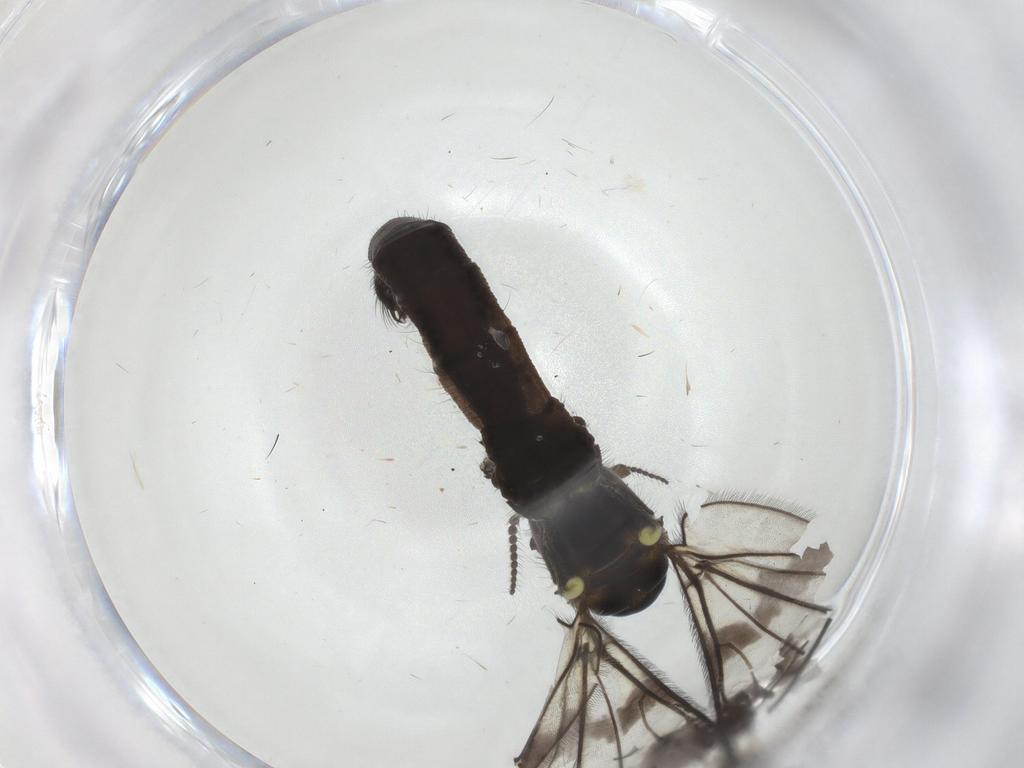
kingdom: Animalia
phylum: Arthropoda
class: Insecta
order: Diptera
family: Limoniidae
